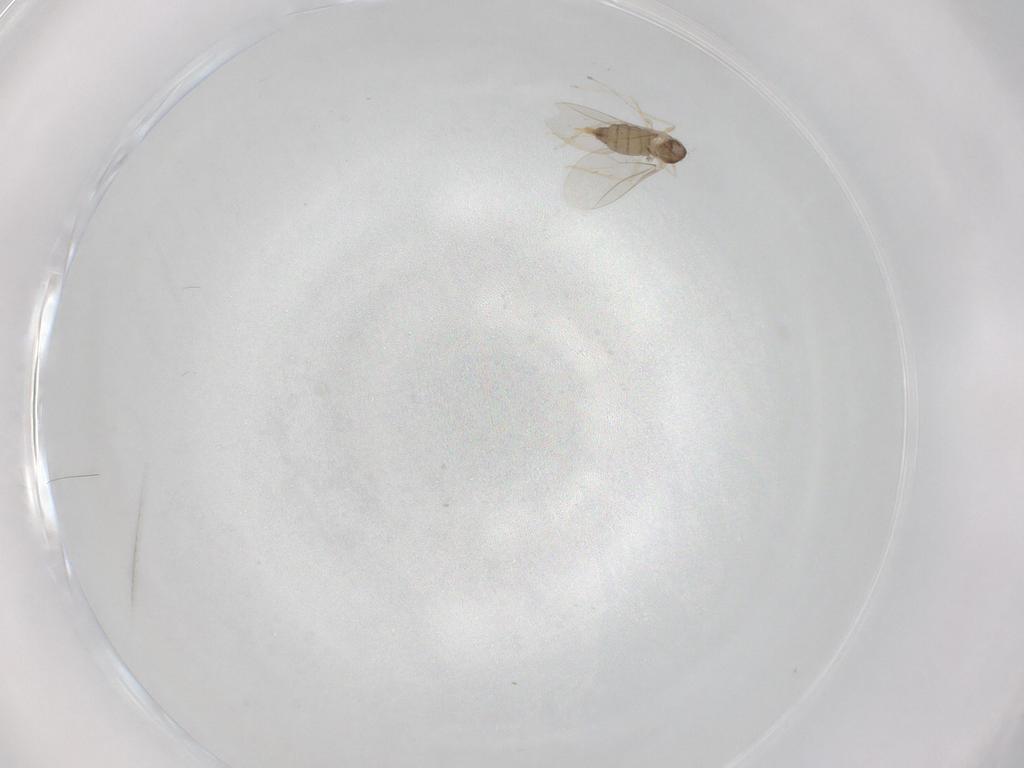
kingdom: Animalia
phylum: Arthropoda
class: Insecta
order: Diptera
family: Cecidomyiidae
